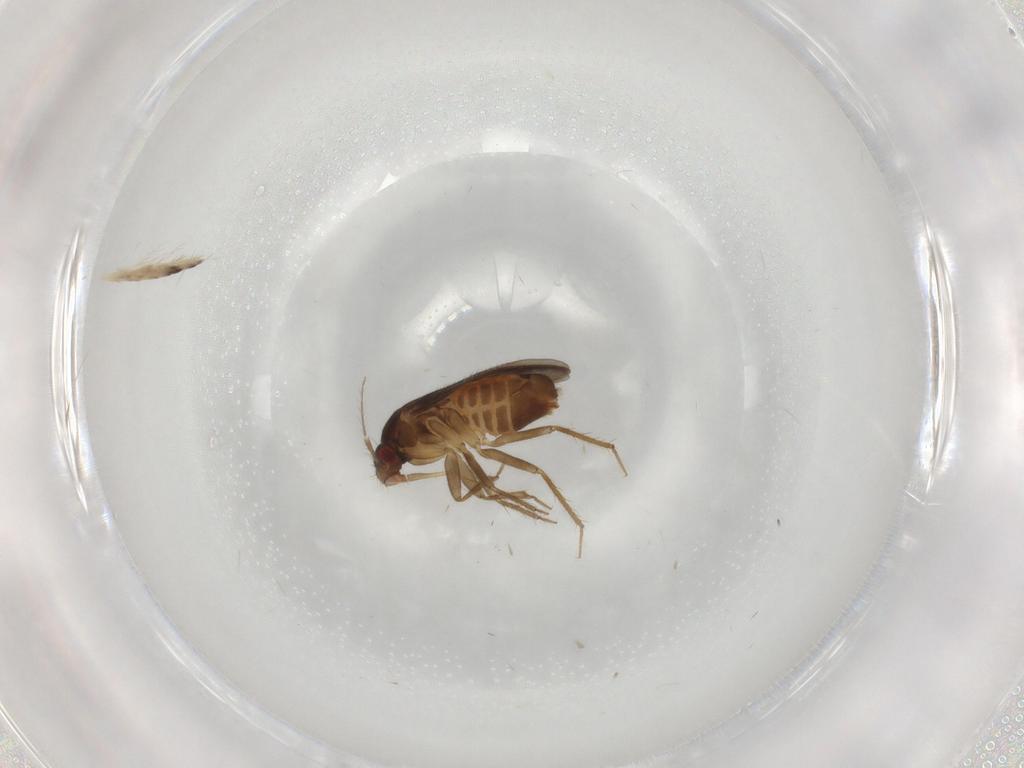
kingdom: Animalia
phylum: Arthropoda
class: Insecta
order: Hemiptera
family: Ceratocombidae
